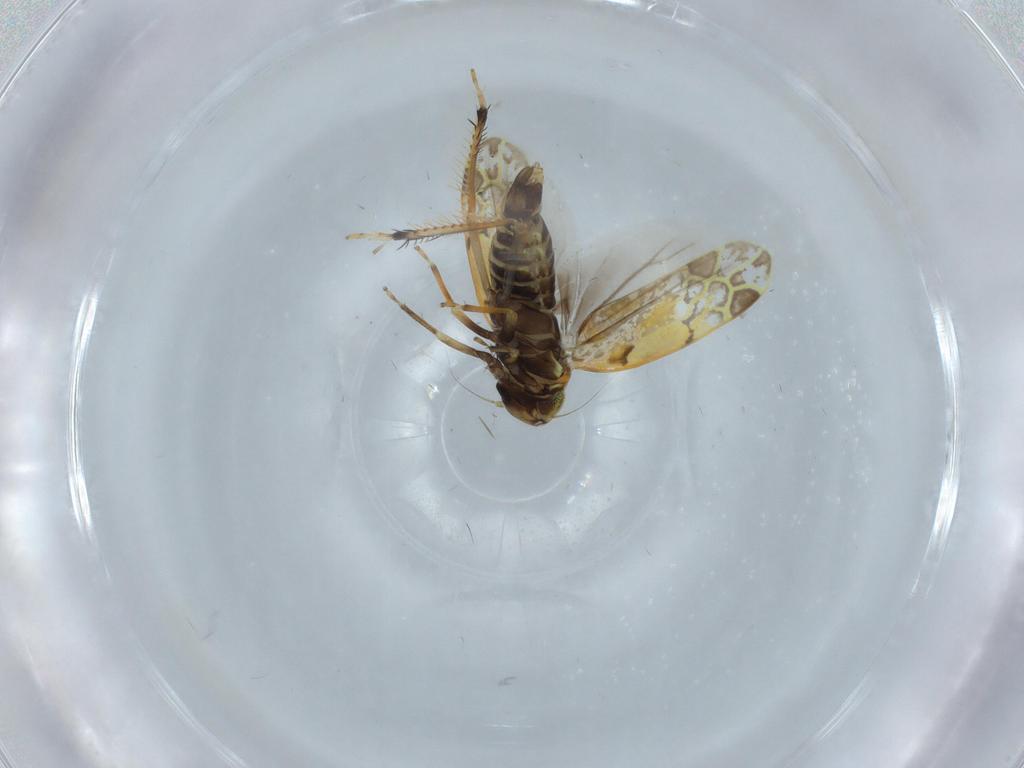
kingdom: Animalia
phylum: Arthropoda
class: Insecta
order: Hemiptera
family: Cicadellidae
